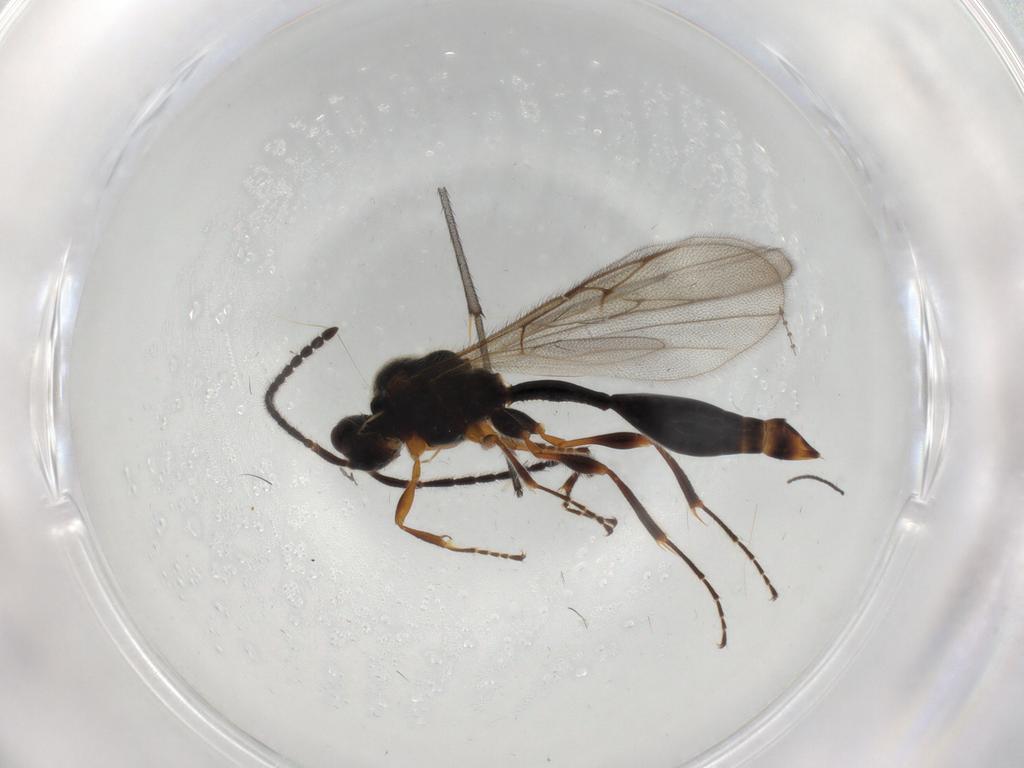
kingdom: Animalia
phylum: Arthropoda
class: Insecta
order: Hymenoptera
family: Diapriidae
